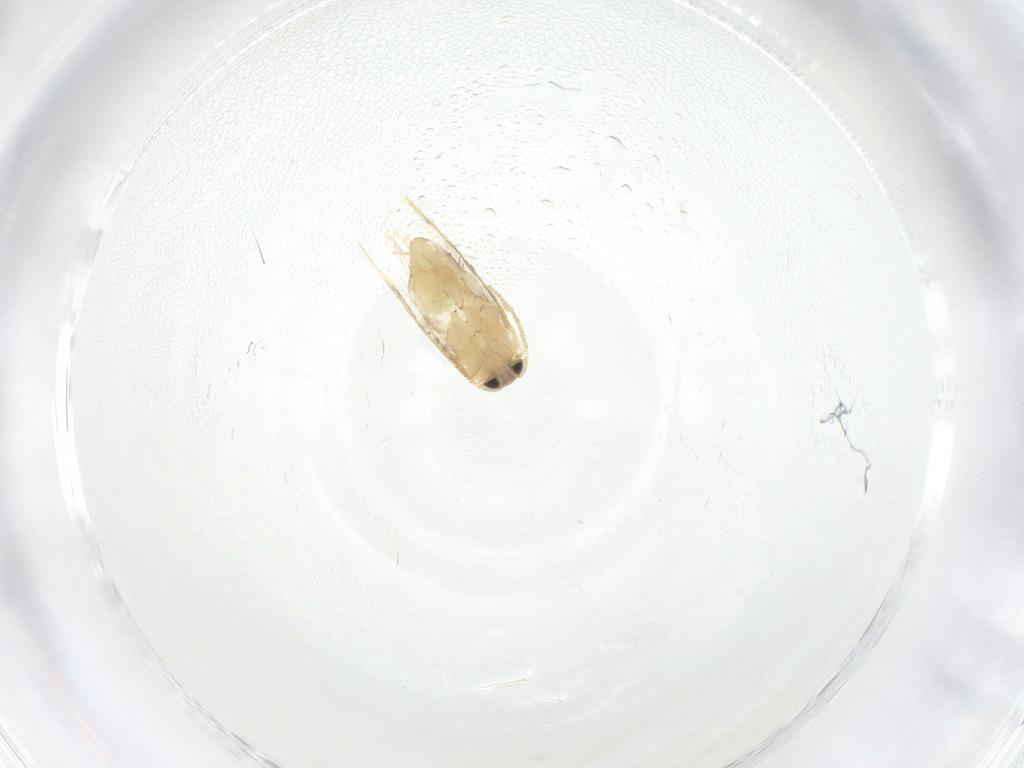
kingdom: Animalia
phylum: Arthropoda
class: Insecta
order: Lepidoptera
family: Nepticulidae
